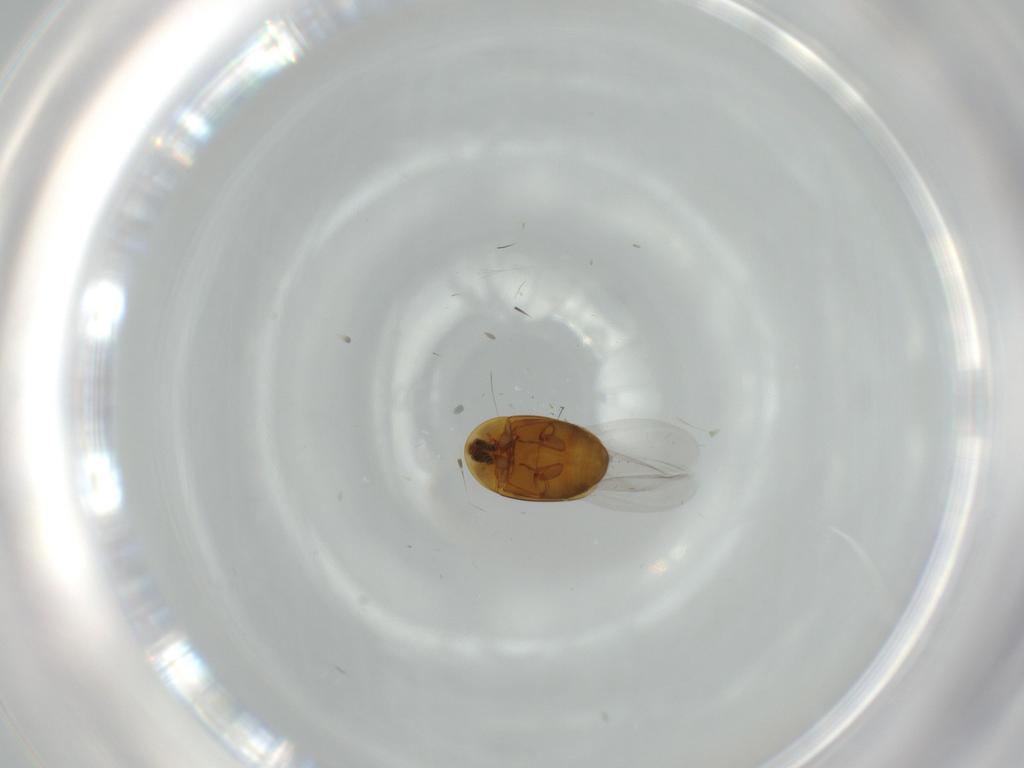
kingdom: Animalia
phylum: Arthropoda
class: Insecta
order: Coleoptera
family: Corylophidae
